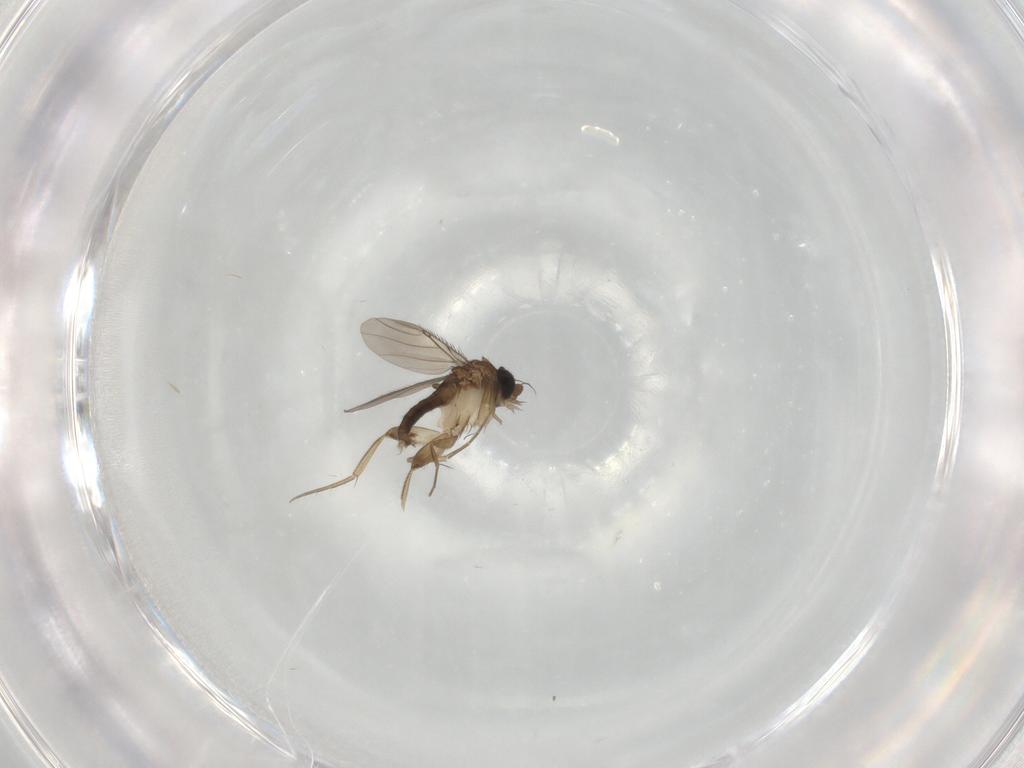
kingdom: Animalia
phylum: Arthropoda
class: Insecta
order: Diptera
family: Phoridae
